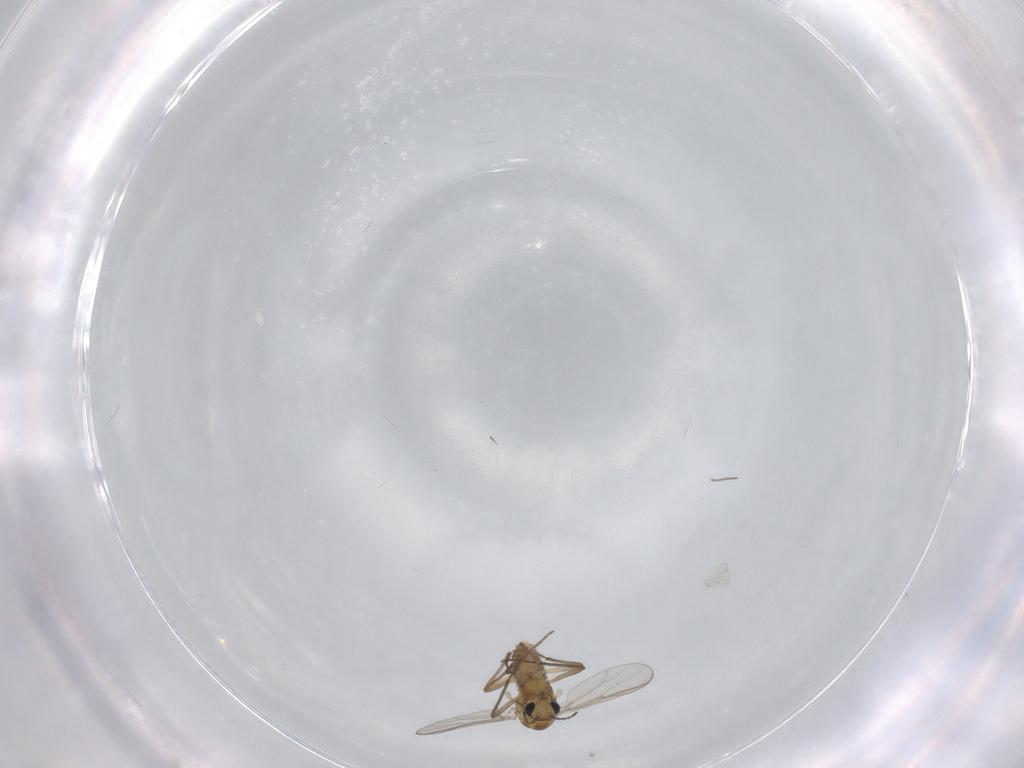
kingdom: Animalia
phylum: Arthropoda
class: Insecta
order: Diptera
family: Chironomidae
